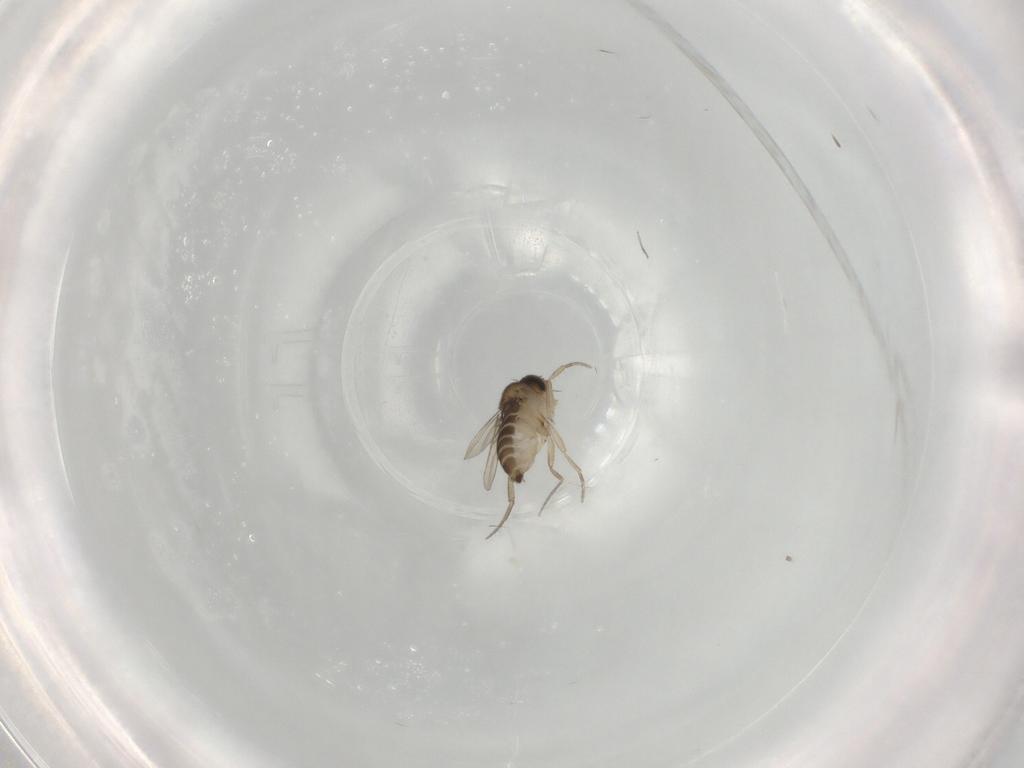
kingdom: Animalia
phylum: Arthropoda
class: Insecta
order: Diptera
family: Phoridae
